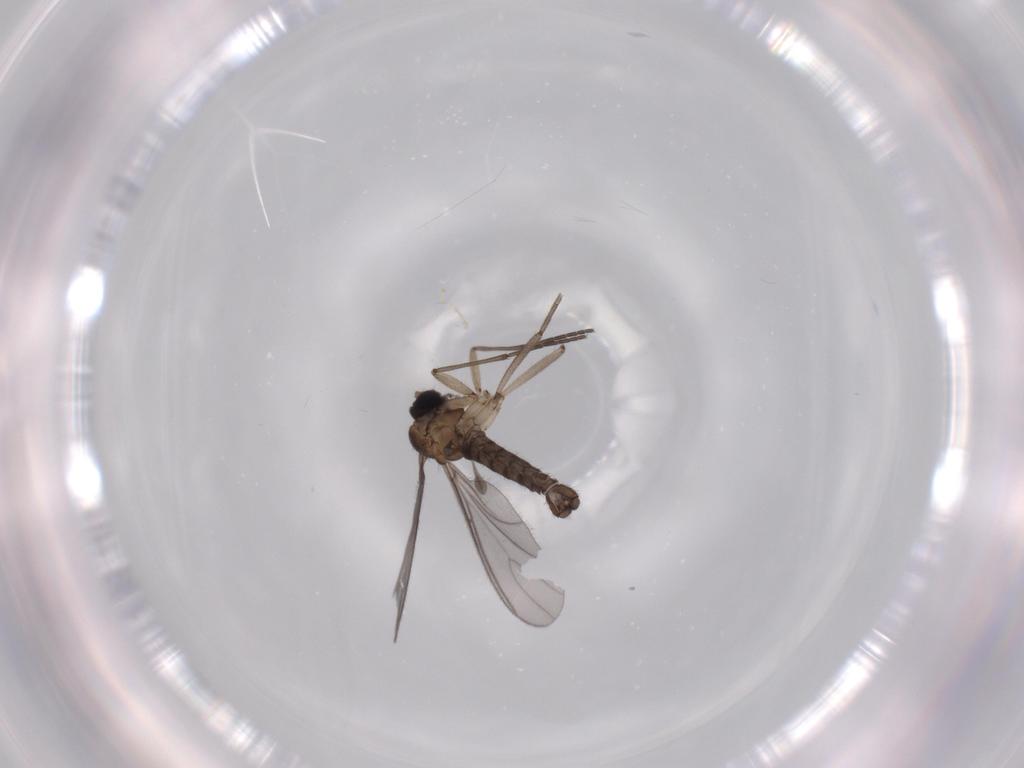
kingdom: Animalia
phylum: Arthropoda
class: Insecta
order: Diptera
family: Sciaridae
